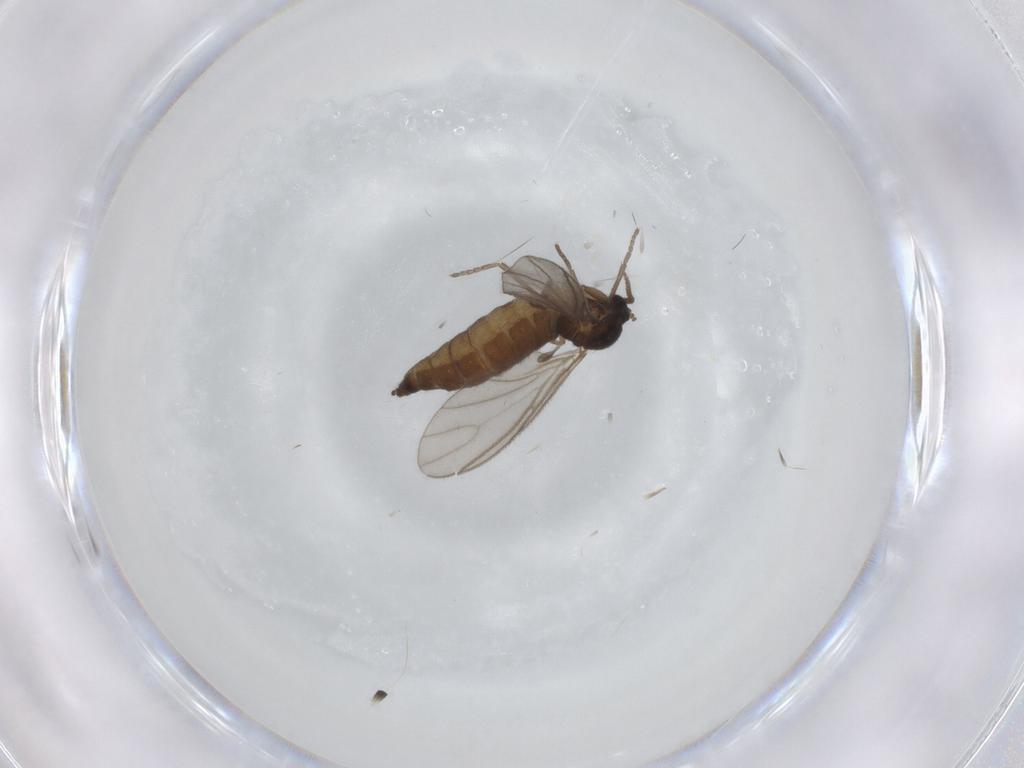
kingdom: Animalia
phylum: Arthropoda
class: Insecta
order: Diptera
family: Sciaridae
